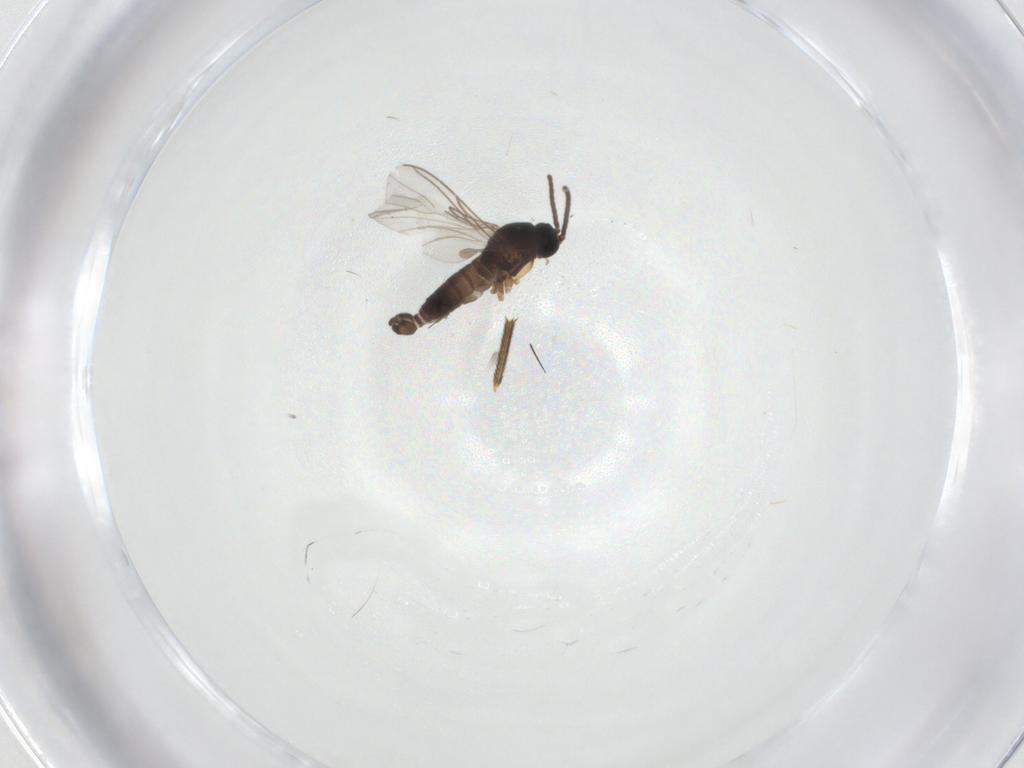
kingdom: Animalia
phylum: Arthropoda
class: Insecta
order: Diptera
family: Sciaridae
